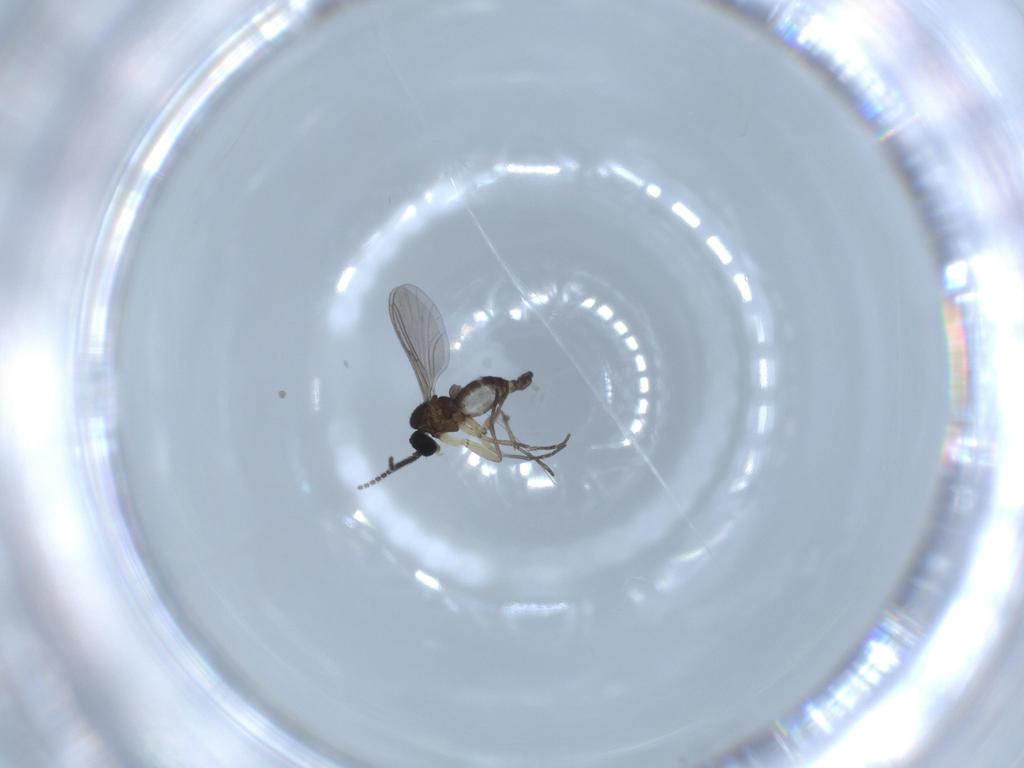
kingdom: Animalia
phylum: Arthropoda
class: Insecta
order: Diptera
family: Sciaridae
